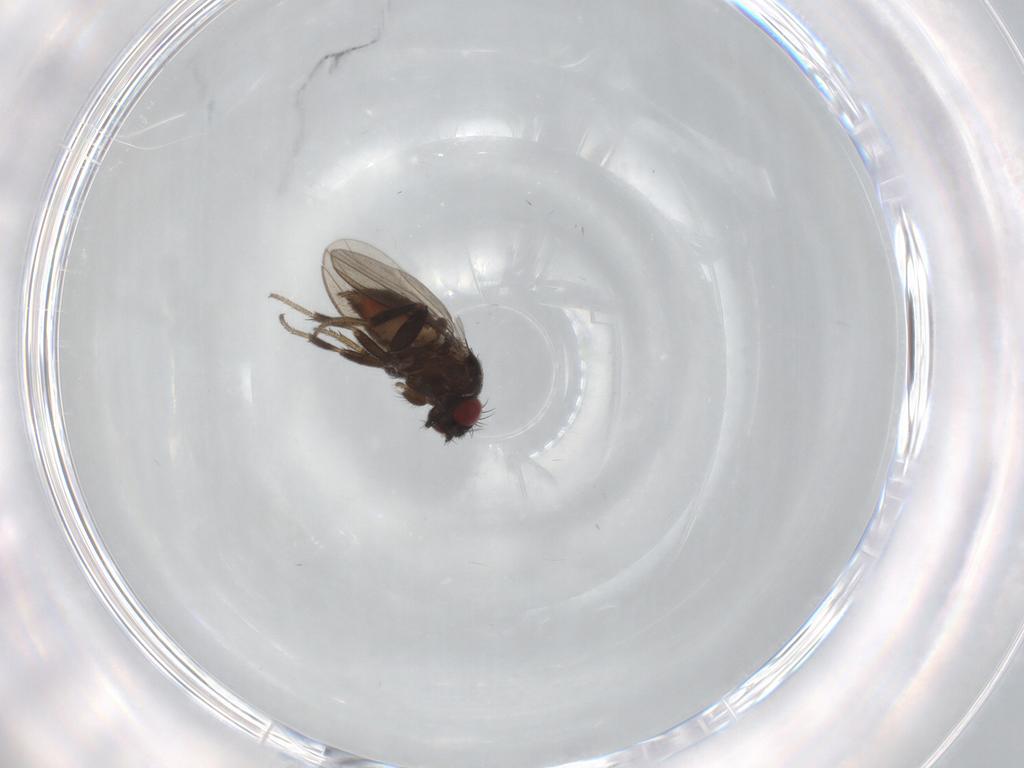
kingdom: Animalia
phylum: Arthropoda
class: Insecta
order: Diptera
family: Milichiidae
